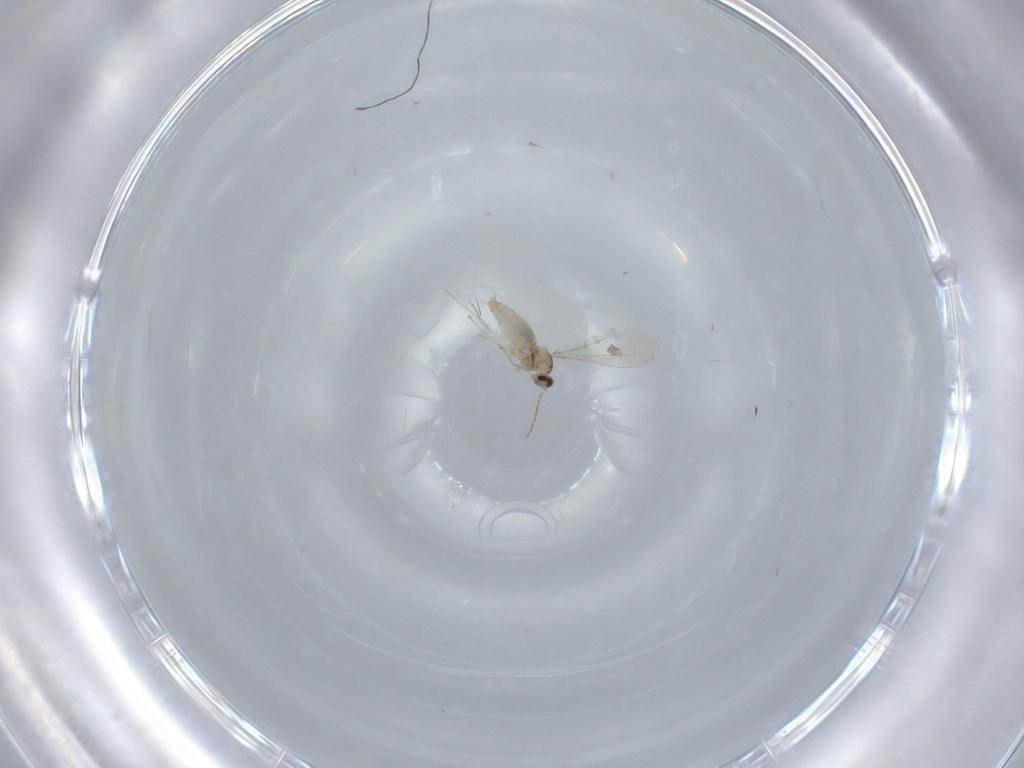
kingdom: Animalia
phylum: Arthropoda
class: Insecta
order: Diptera
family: Cecidomyiidae
